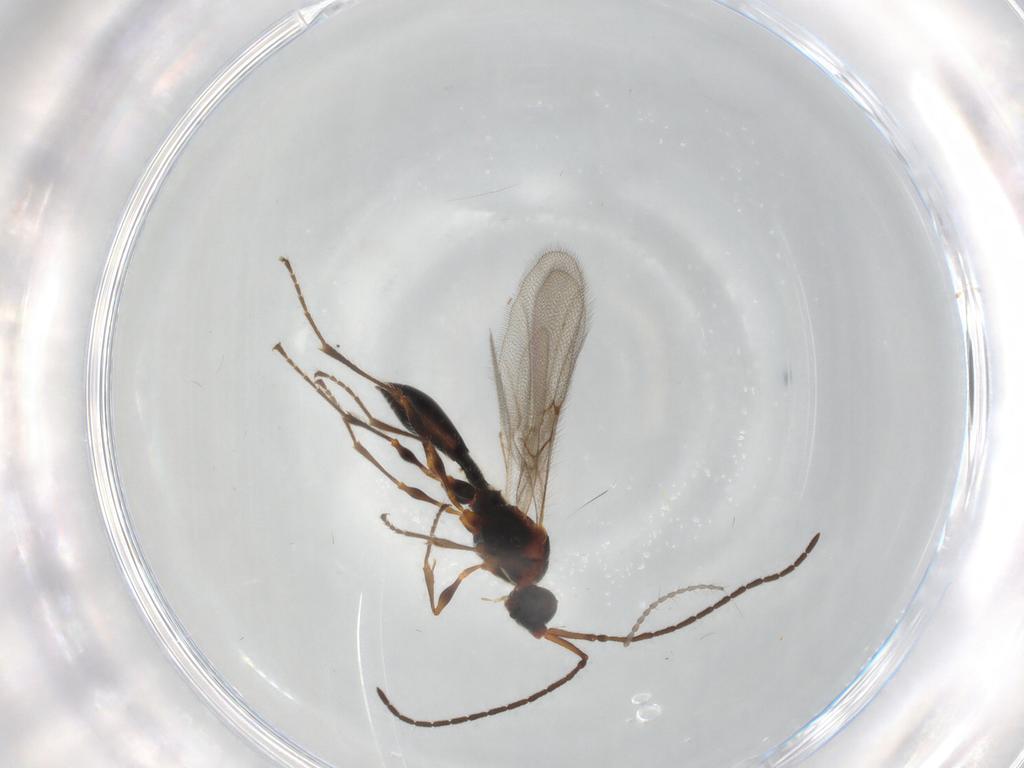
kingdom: Animalia
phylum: Arthropoda
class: Insecta
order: Hymenoptera
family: Diapriidae
